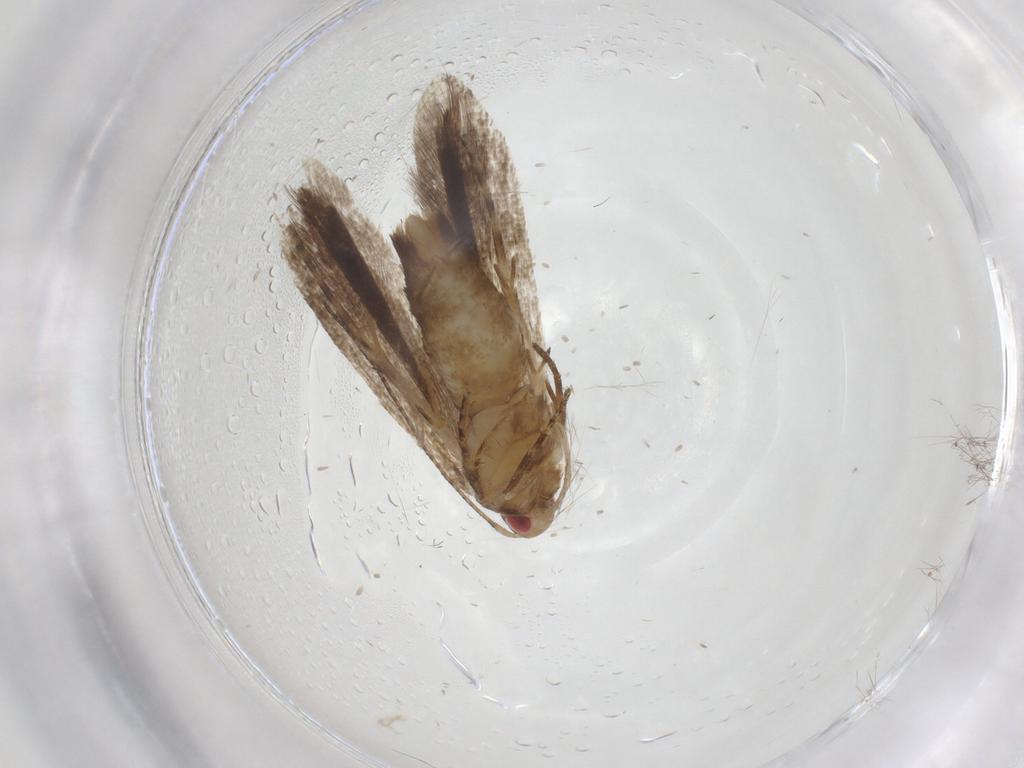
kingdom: Animalia
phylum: Arthropoda
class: Insecta
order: Lepidoptera
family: Gelechiidae
